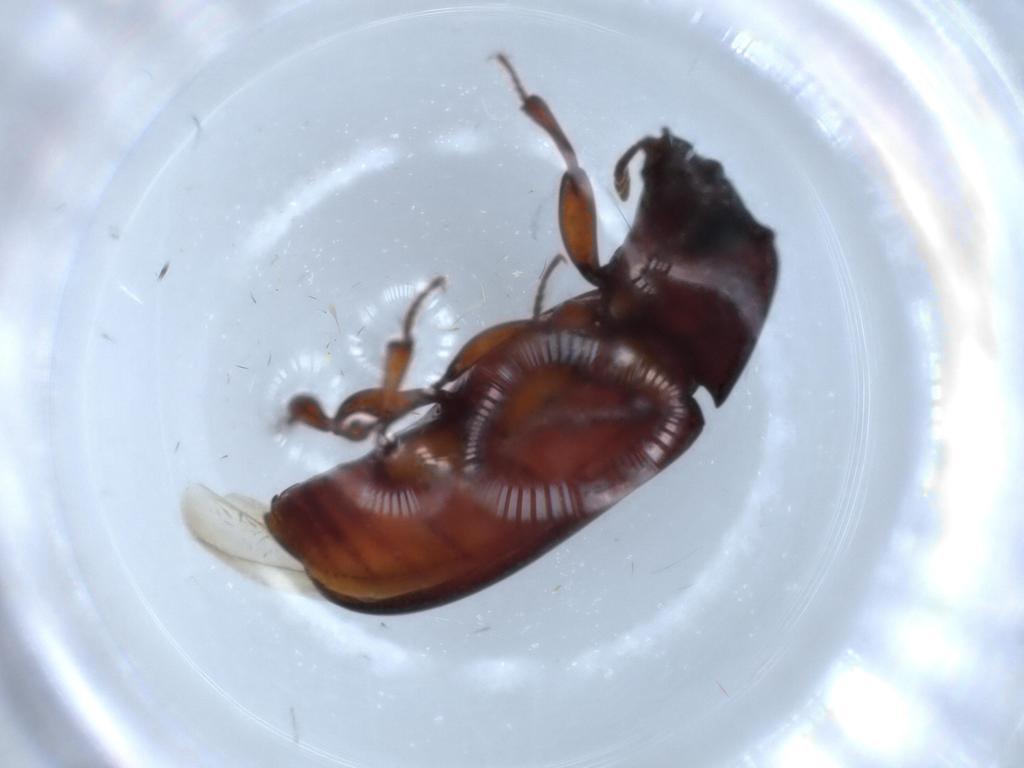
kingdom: Animalia
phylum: Arthropoda
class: Insecta
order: Coleoptera
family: Zopheridae
